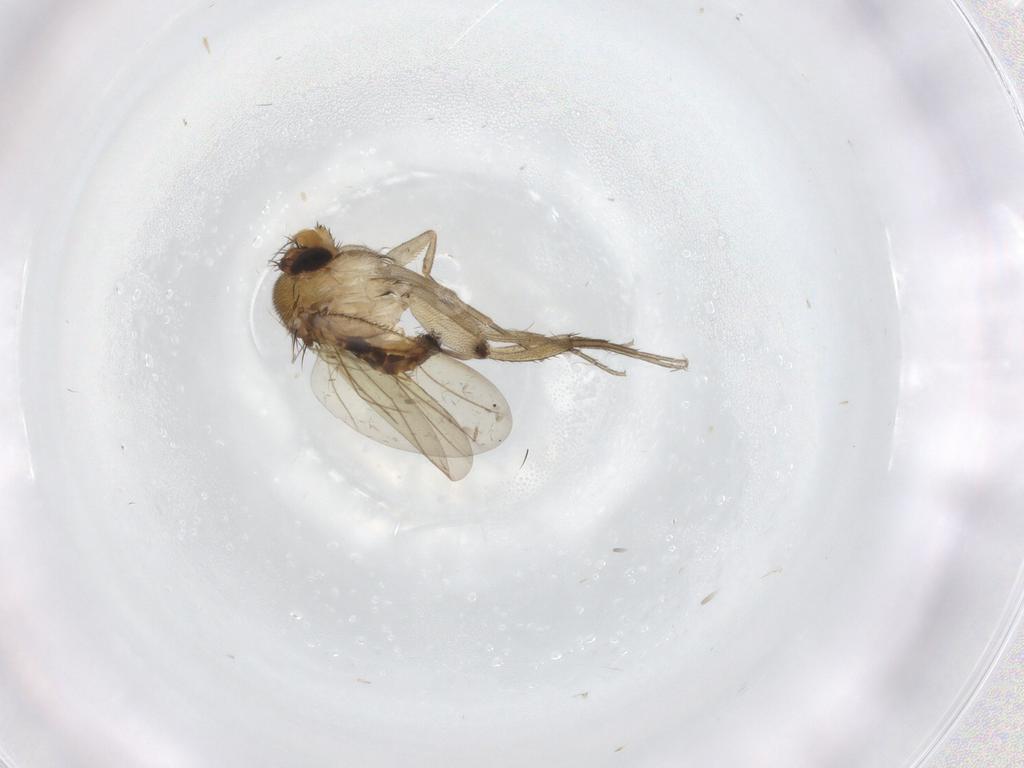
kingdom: Animalia
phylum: Arthropoda
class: Insecta
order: Diptera
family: Phoridae
